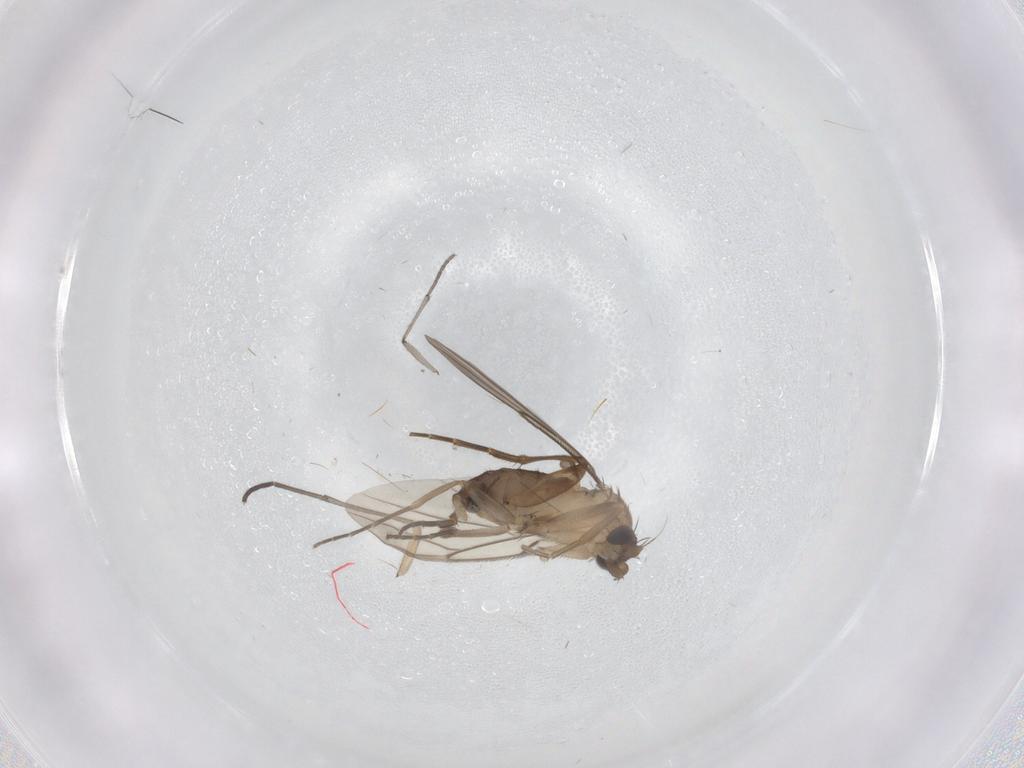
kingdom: Animalia
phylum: Arthropoda
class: Insecta
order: Diptera
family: Phoridae
